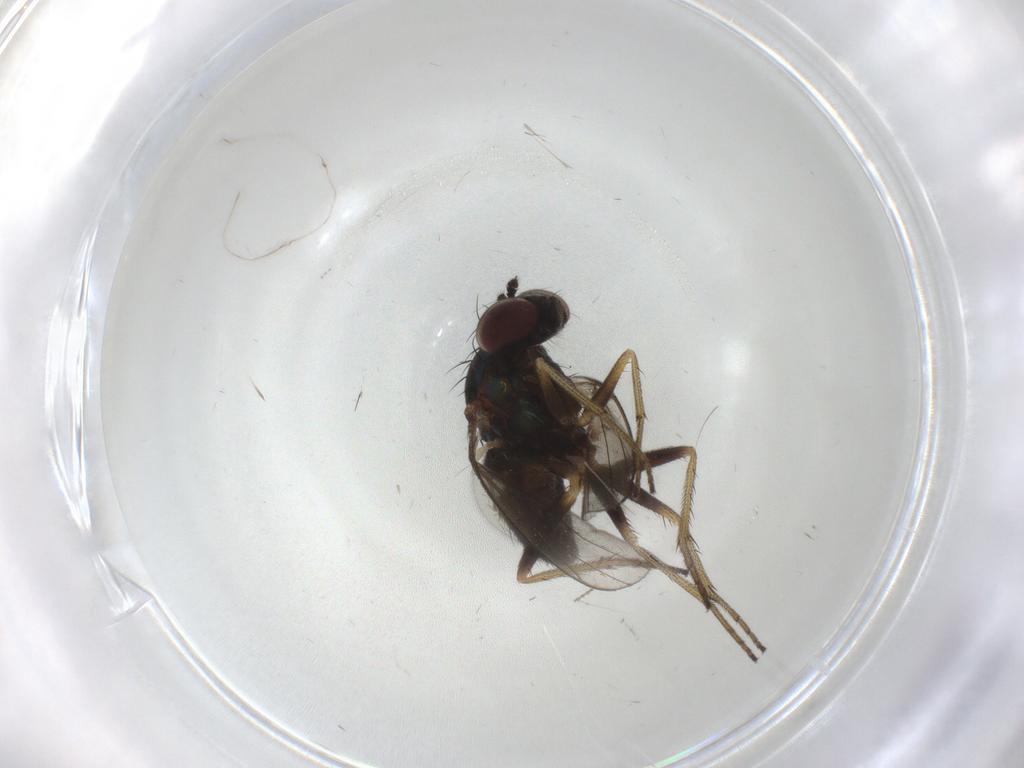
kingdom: Animalia
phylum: Arthropoda
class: Insecta
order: Diptera
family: Dolichopodidae
